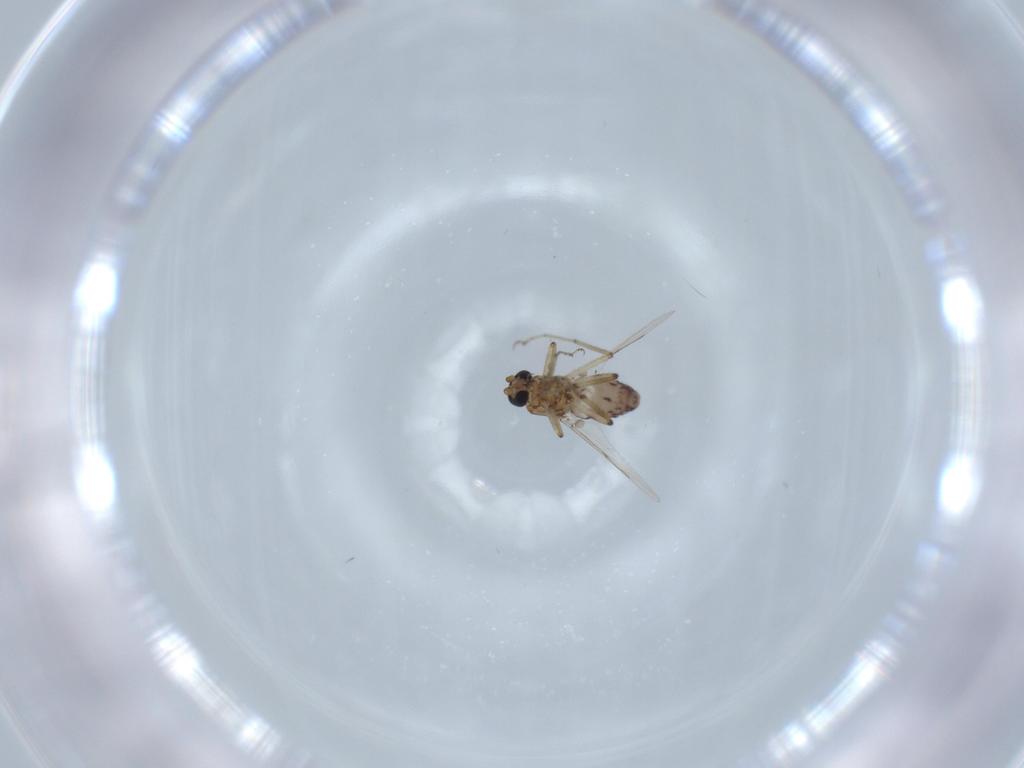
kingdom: Animalia
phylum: Arthropoda
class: Insecta
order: Diptera
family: Ceratopogonidae
